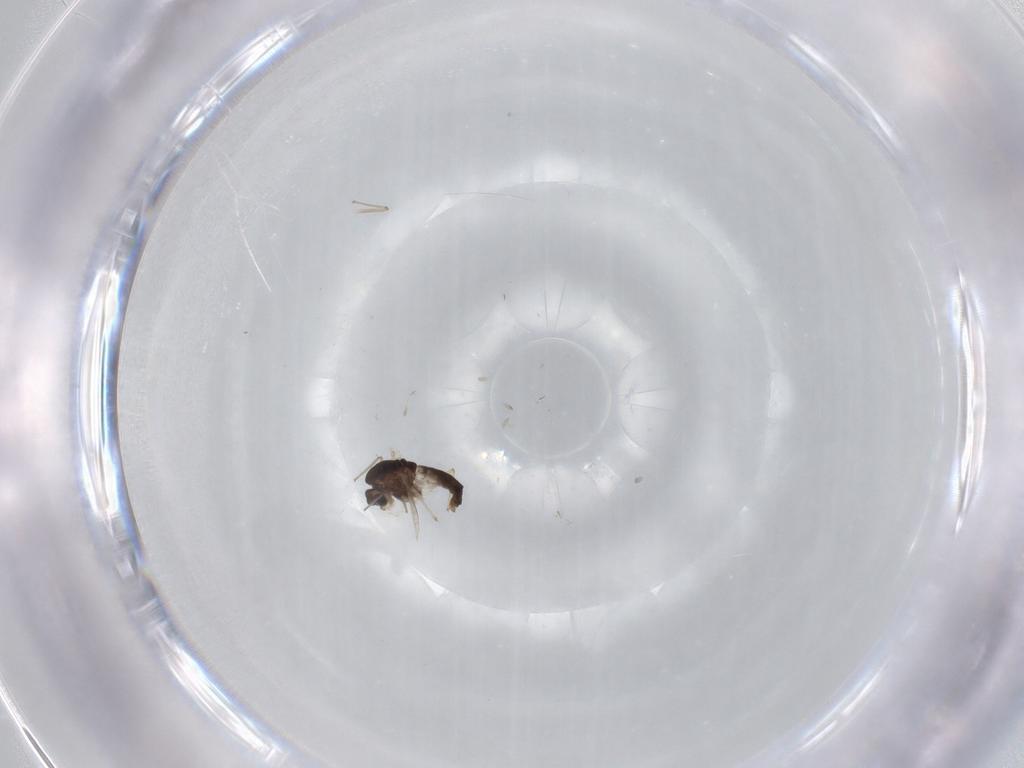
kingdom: Animalia
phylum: Arthropoda
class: Insecta
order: Diptera
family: Chironomidae
